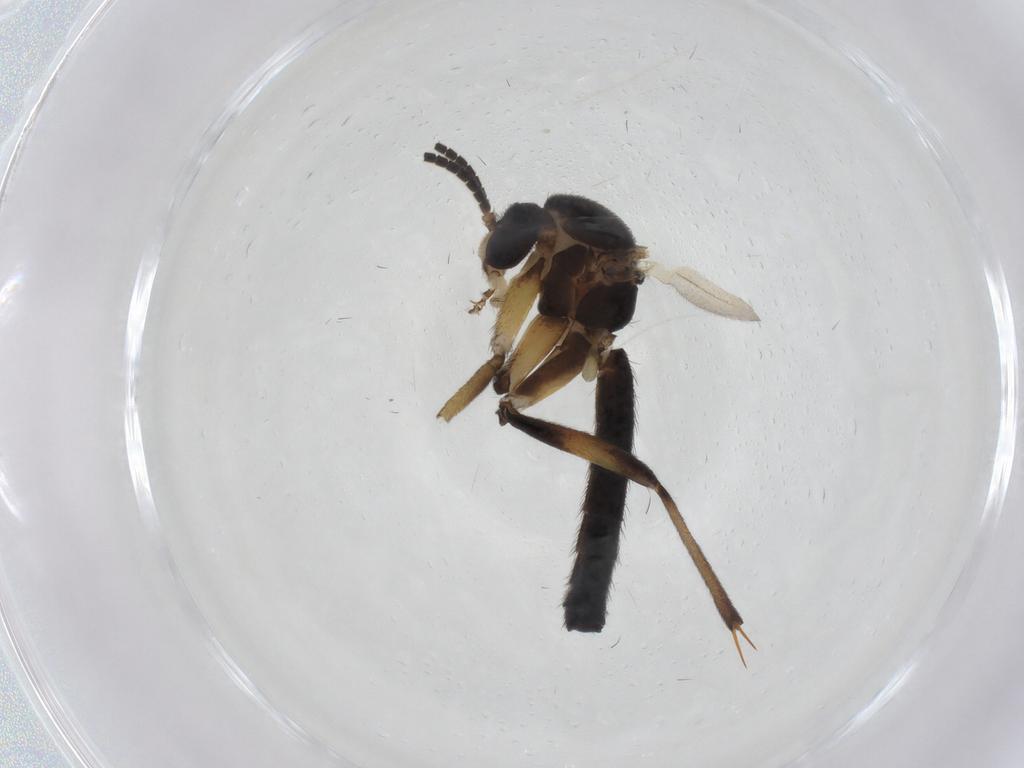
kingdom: Animalia
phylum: Arthropoda
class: Insecta
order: Diptera
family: Mycetophilidae
